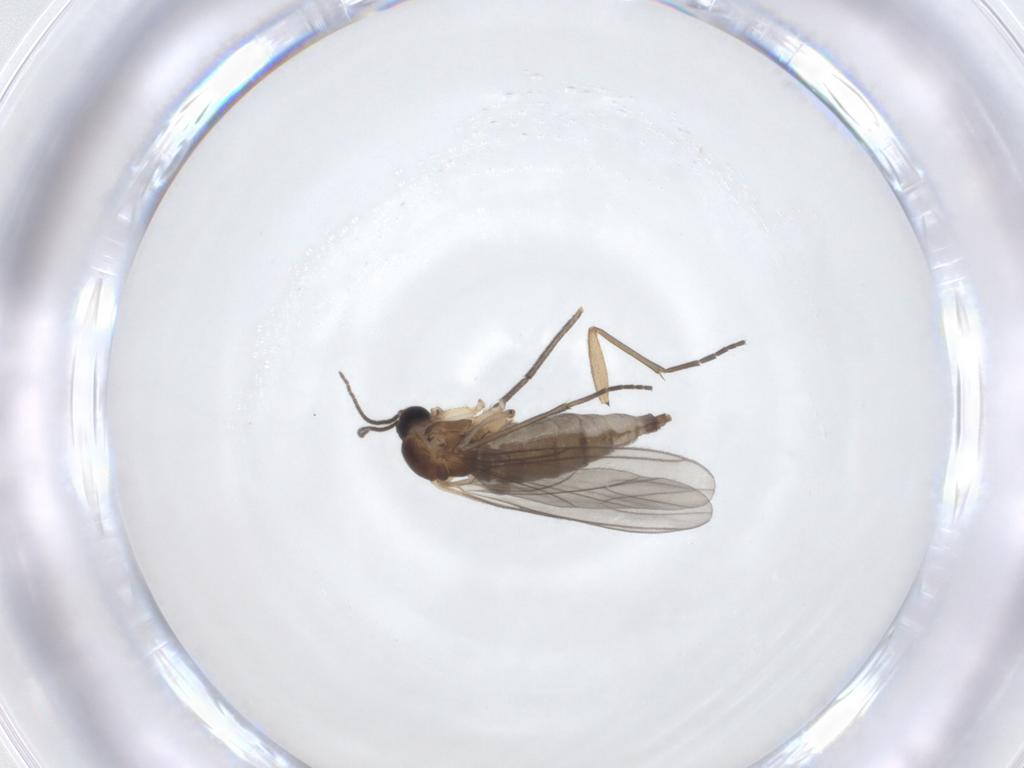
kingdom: Animalia
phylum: Arthropoda
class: Insecta
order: Diptera
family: Sciaridae
